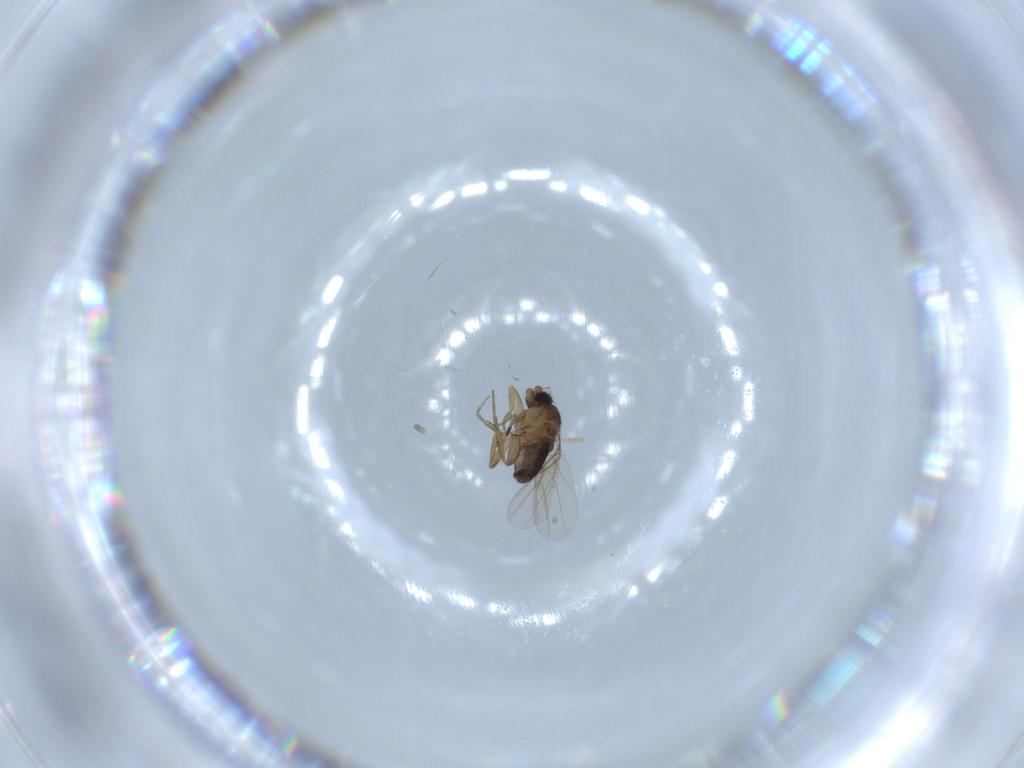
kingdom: Animalia
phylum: Arthropoda
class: Insecta
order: Diptera
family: Phoridae
